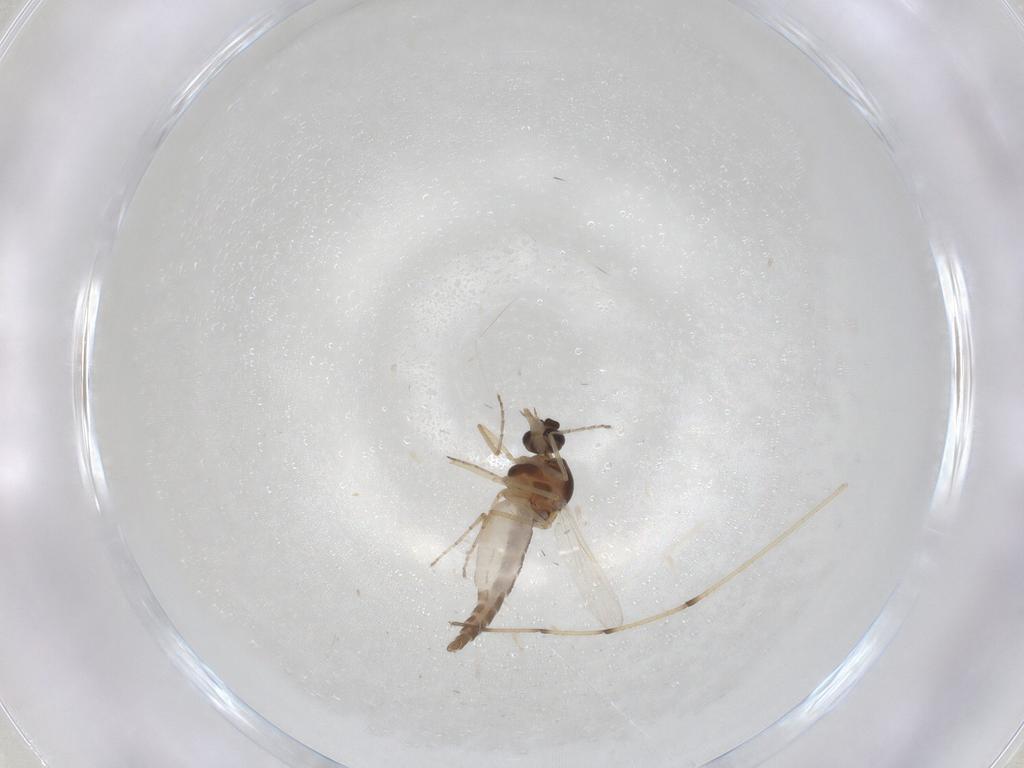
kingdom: Animalia
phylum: Arthropoda
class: Insecta
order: Diptera
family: Ceratopogonidae
